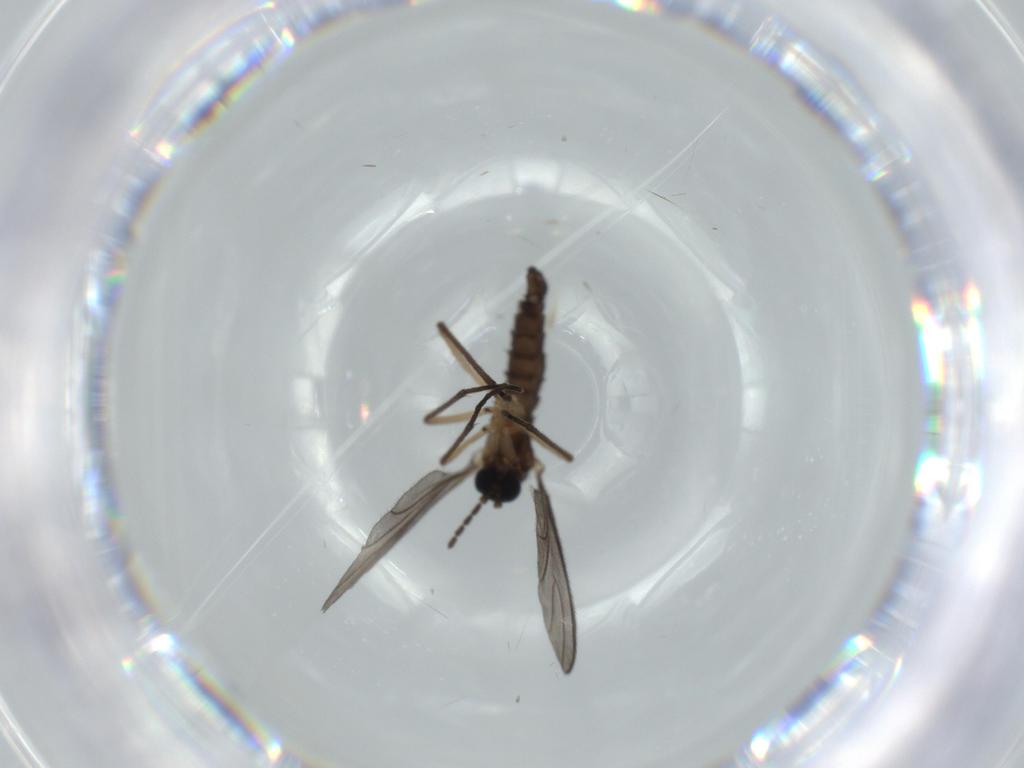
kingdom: Animalia
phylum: Arthropoda
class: Insecta
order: Diptera
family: Sciaridae
